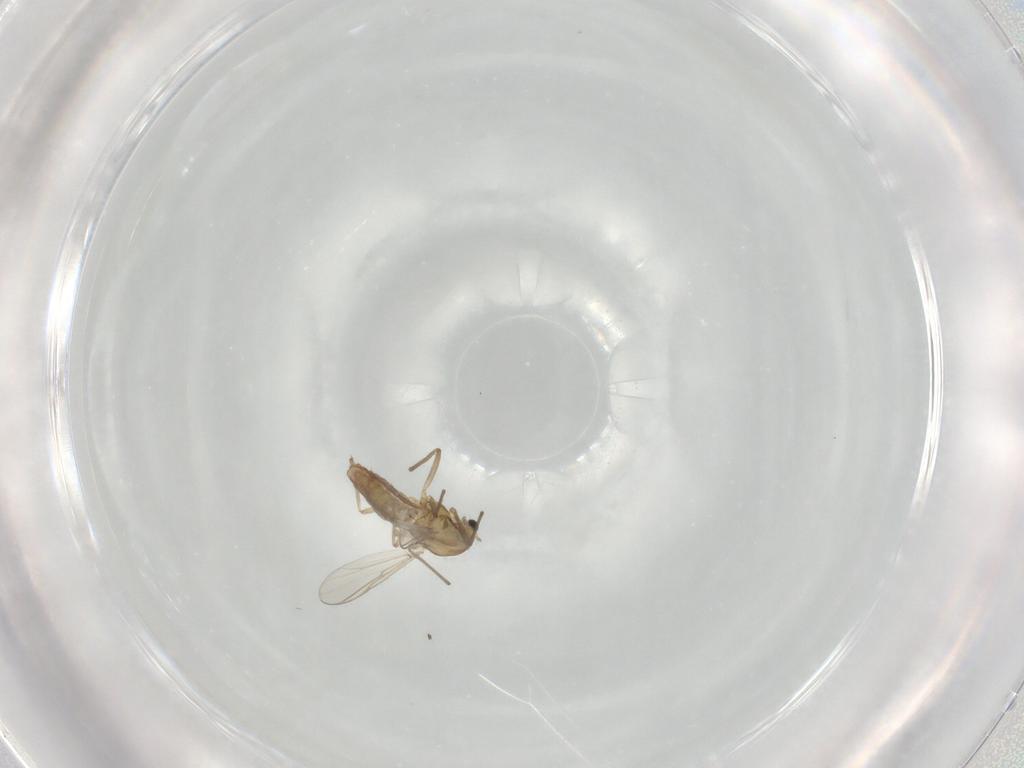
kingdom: Animalia
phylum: Arthropoda
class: Insecta
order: Diptera
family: Chironomidae
